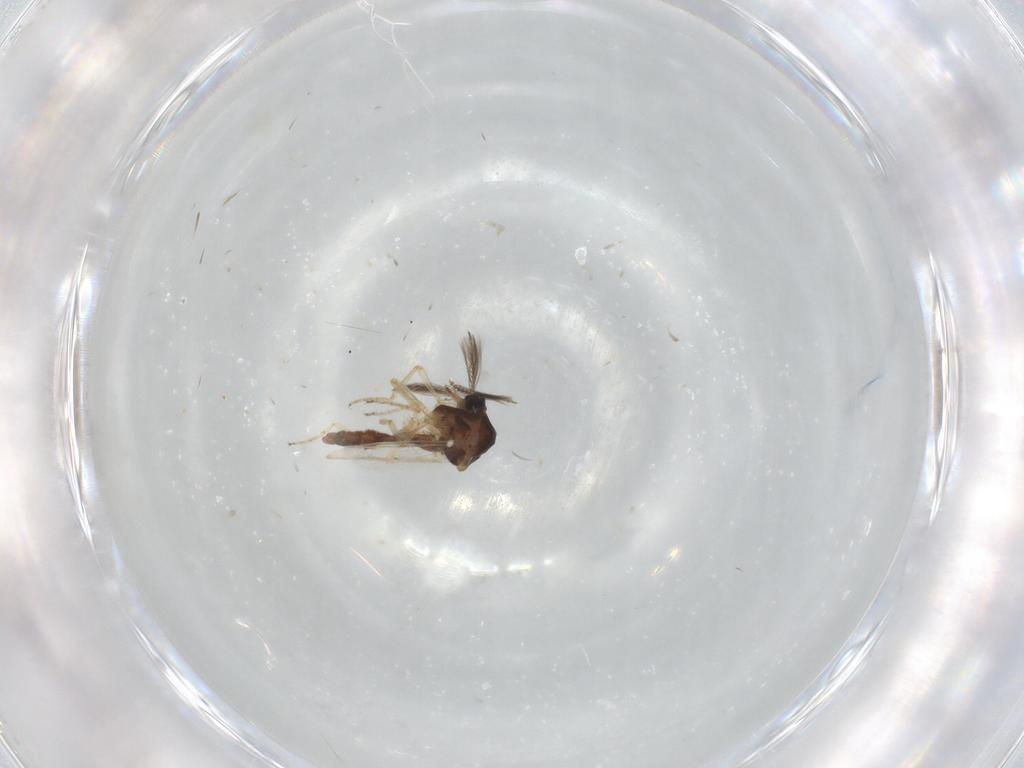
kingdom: Animalia
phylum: Arthropoda
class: Insecta
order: Diptera
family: Ceratopogonidae
